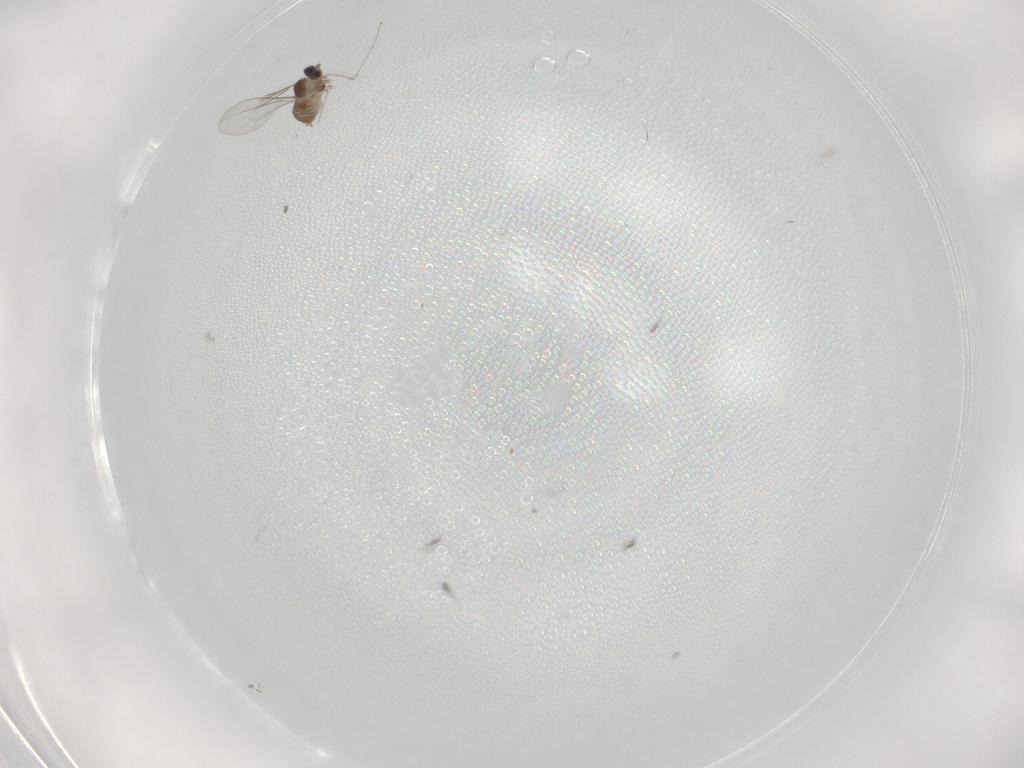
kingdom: Animalia
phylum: Arthropoda
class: Insecta
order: Diptera
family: Cecidomyiidae
